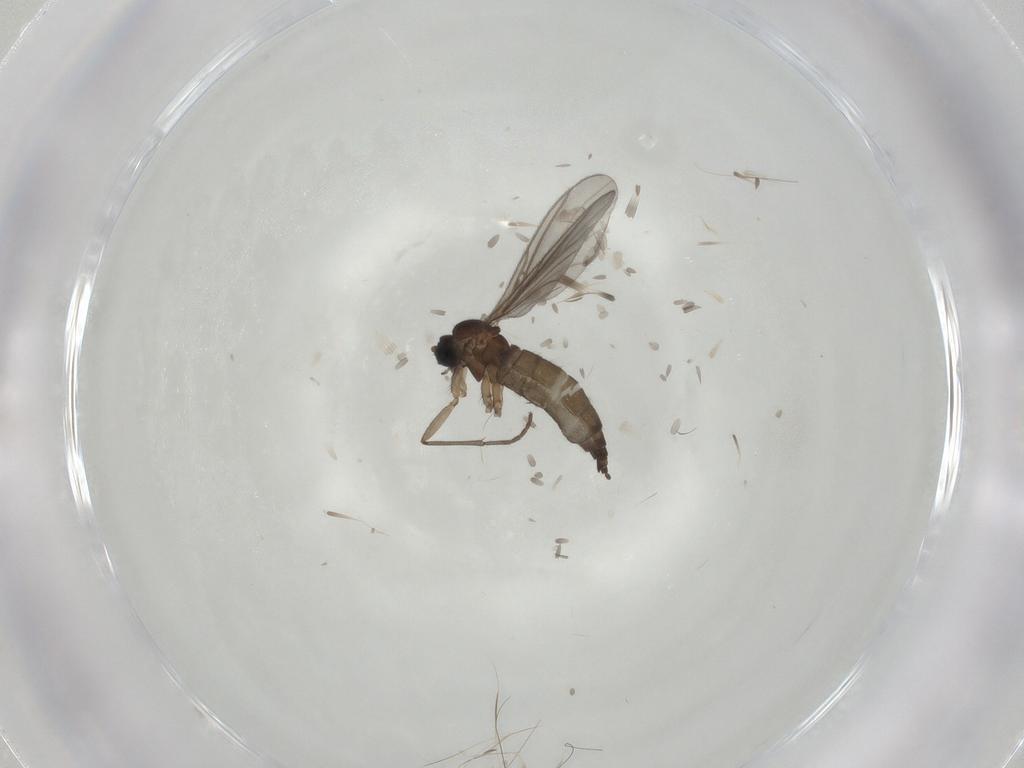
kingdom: Animalia
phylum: Arthropoda
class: Insecta
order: Diptera
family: Sciaridae
